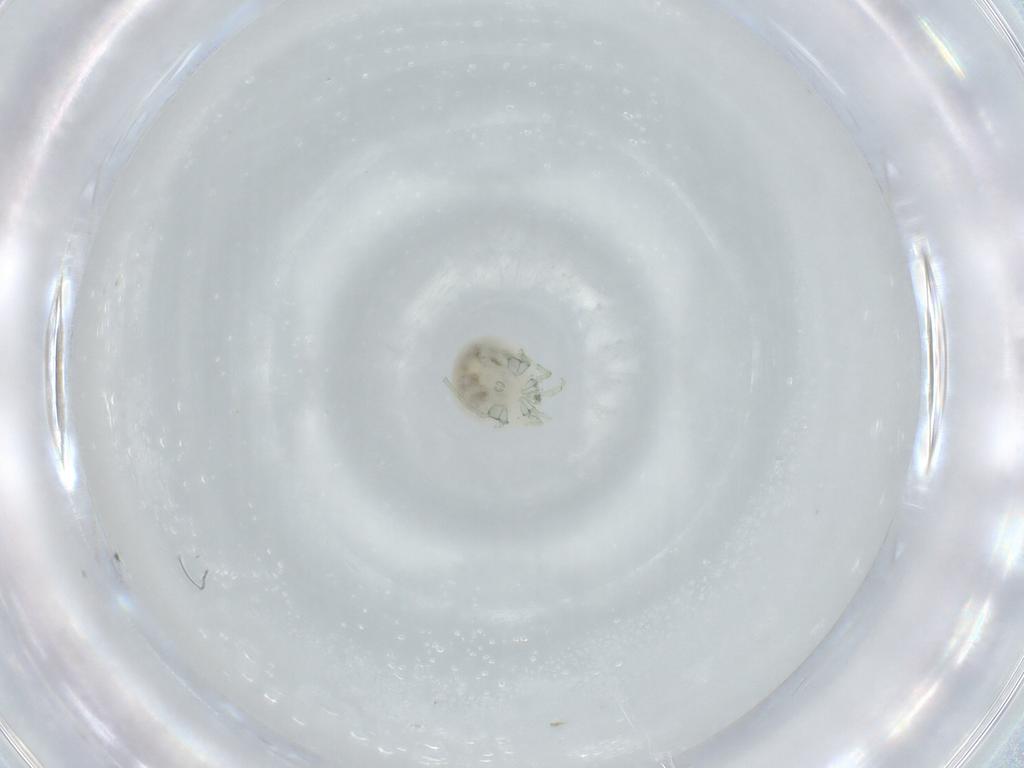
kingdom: Animalia
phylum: Arthropoda
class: Arachnida
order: Trombidiformes
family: Sperchontidae
